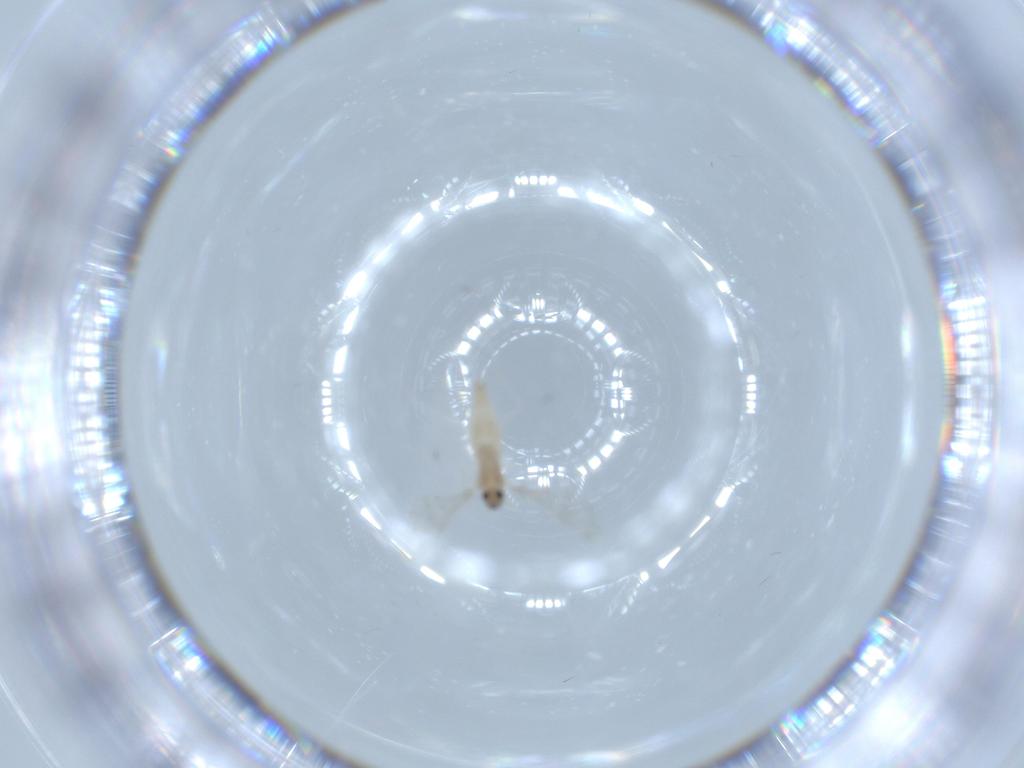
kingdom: Animalia
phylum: Arthropoda
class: Insecta
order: Diptera
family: Cecidomyiidae
